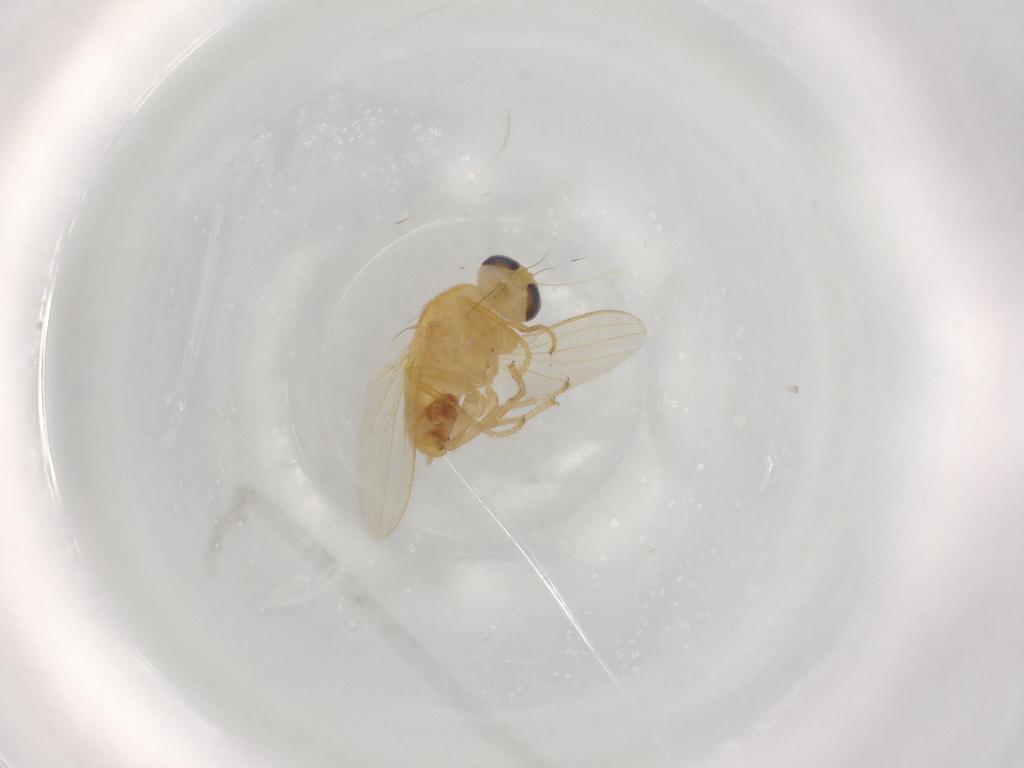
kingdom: Animalia
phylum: Arthropoda
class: Insecta
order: Diptera
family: Chyromyidae
